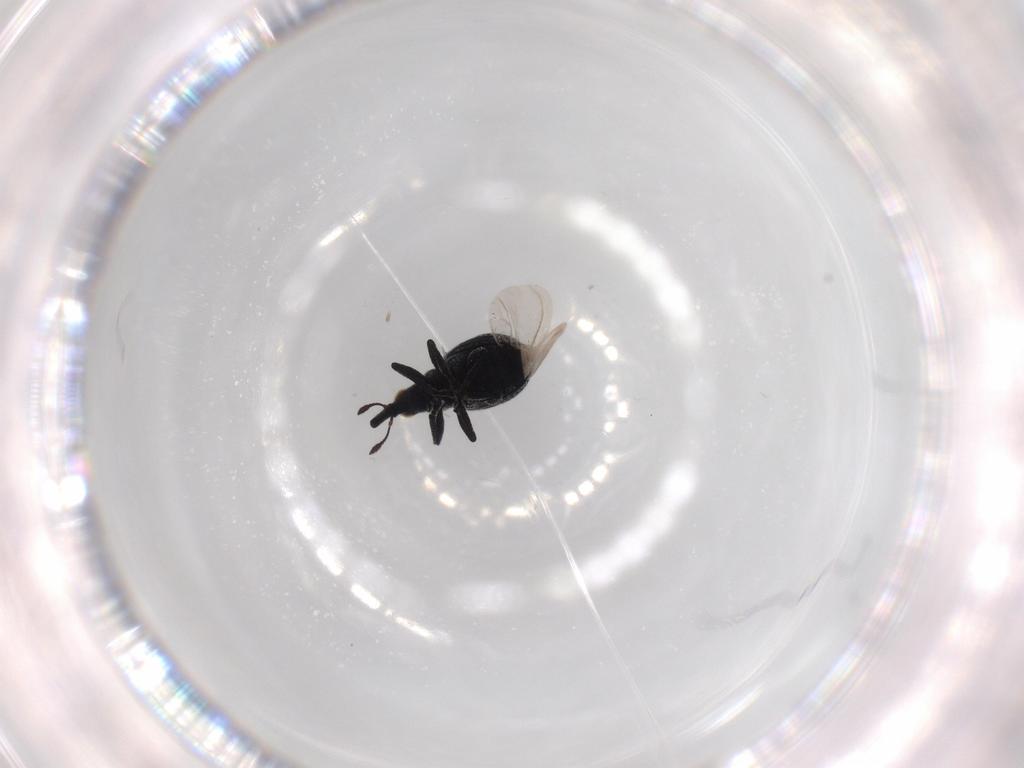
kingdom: Animalia
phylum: Arthropoda
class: Insecta
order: Coleoptera
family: Brentidae
